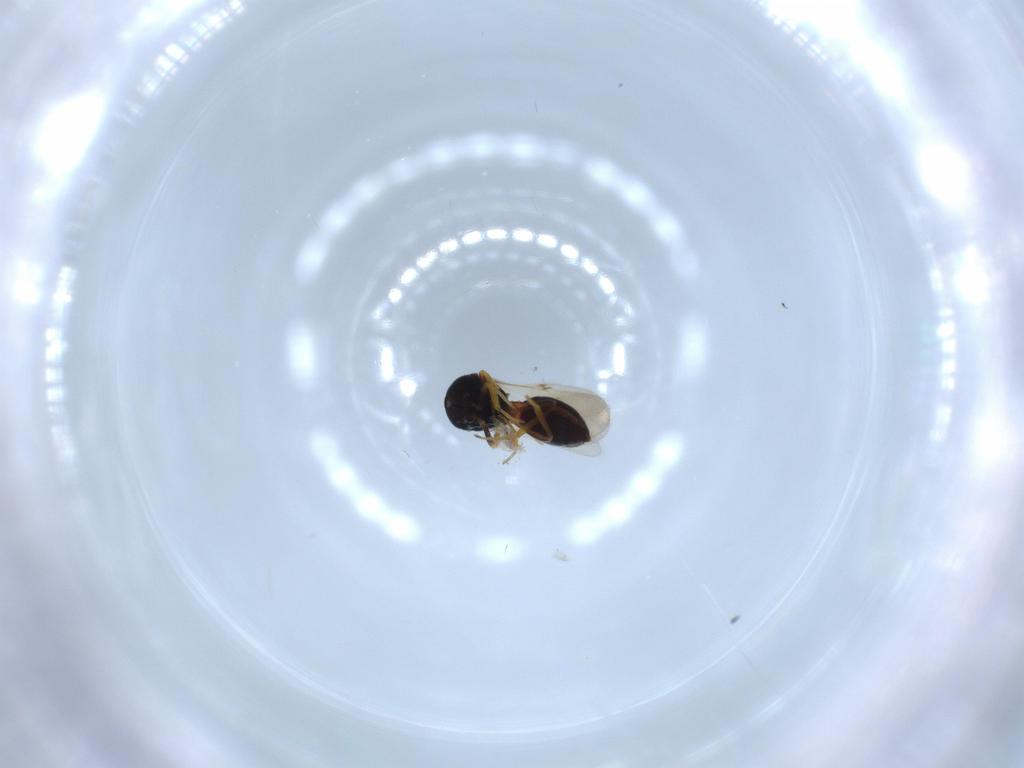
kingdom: Animalia
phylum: Arthropoda
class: Insecta
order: Hymenoptera
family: Scelionidae
